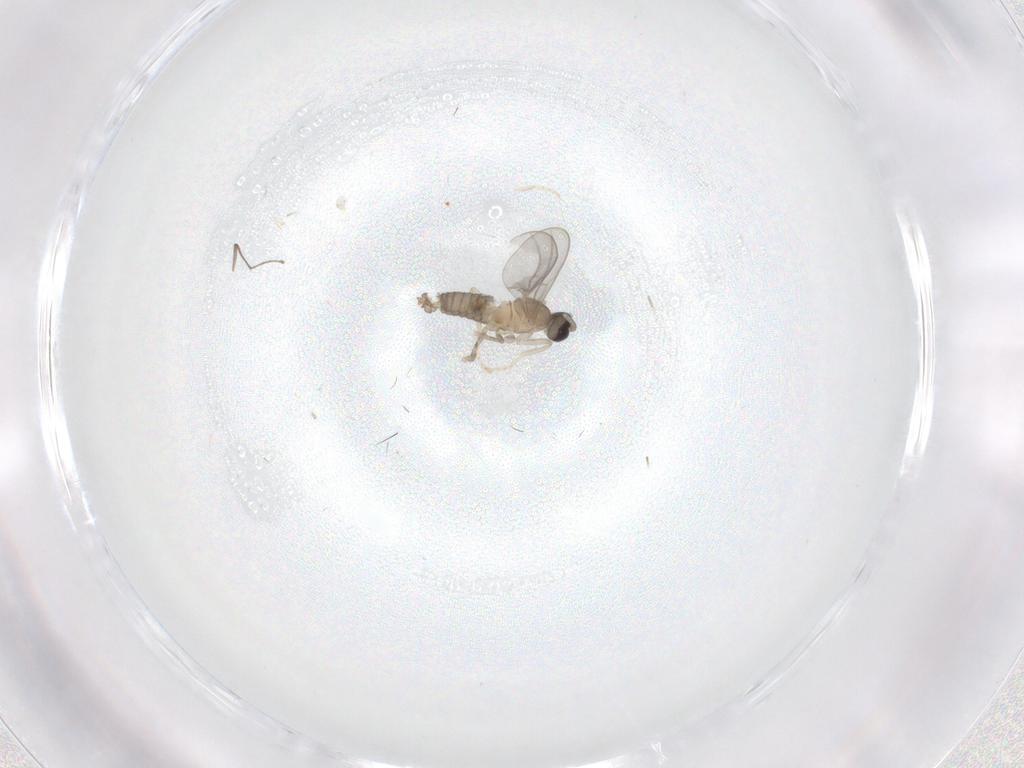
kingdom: Animalia
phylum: Arthropoda
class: Insecta
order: Diptera
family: Cecidomyiidae
